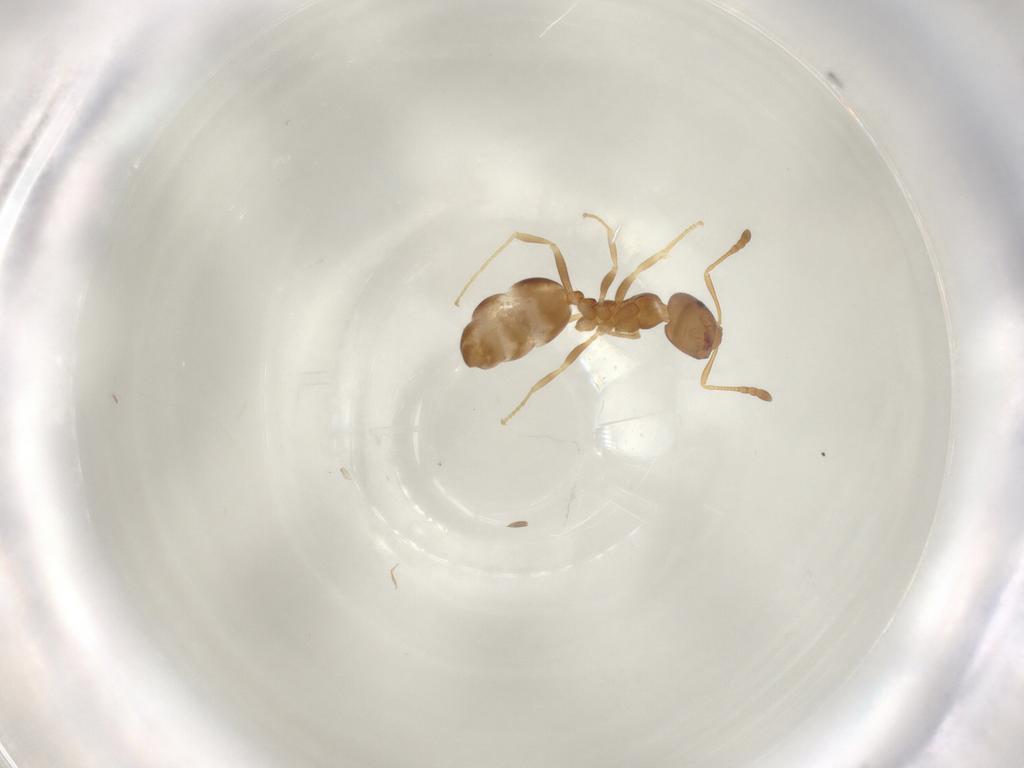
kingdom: Animalia
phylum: Arthropoda
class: Insecta
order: Hymenoptera
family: Formicidae
